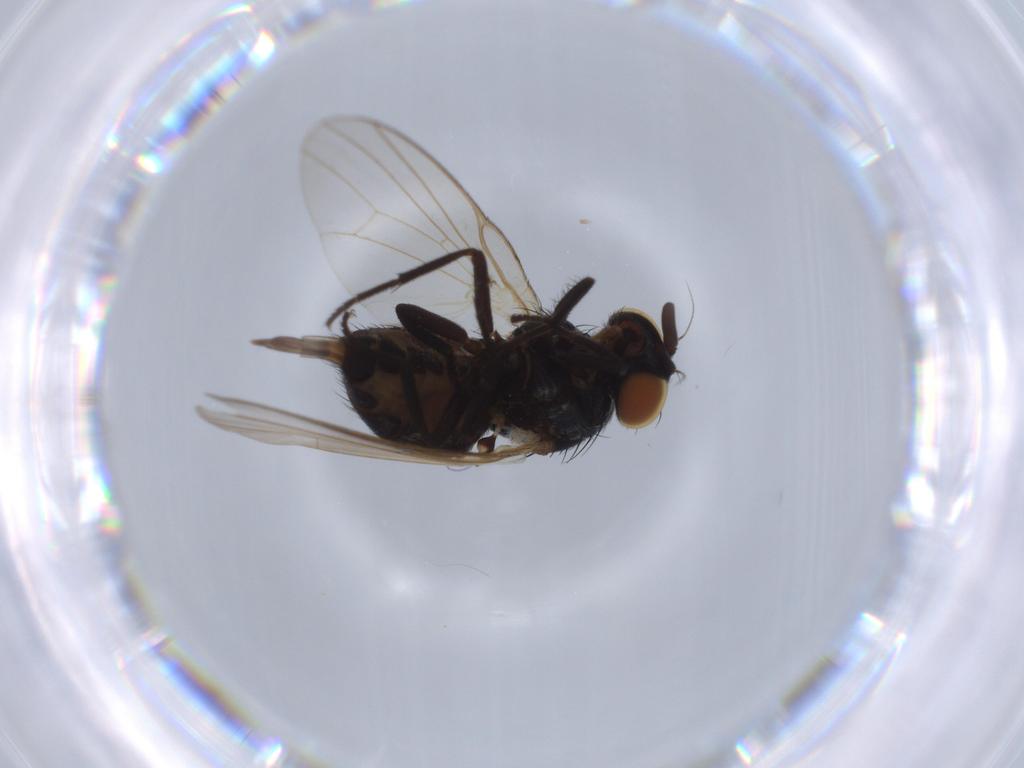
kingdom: Animalia
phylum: Arthropoda
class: Insecta
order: Diptera
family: Lonchaeidae
